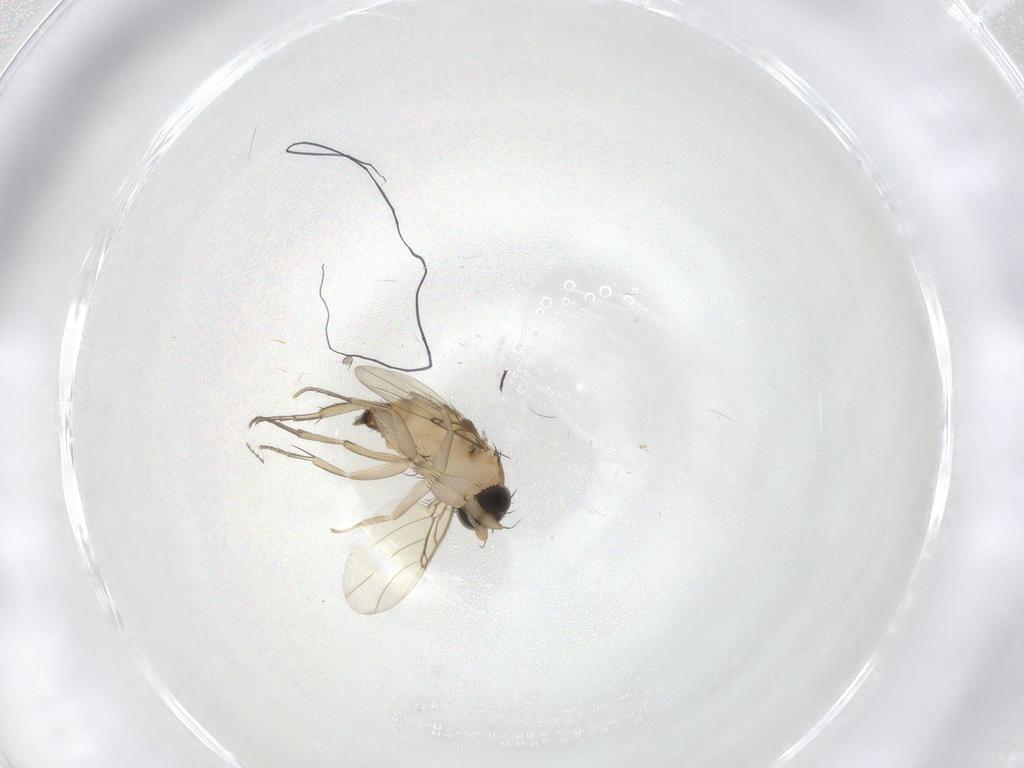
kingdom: Animalia
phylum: Arthropoda
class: Insecta
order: Diptera
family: Phoridae
